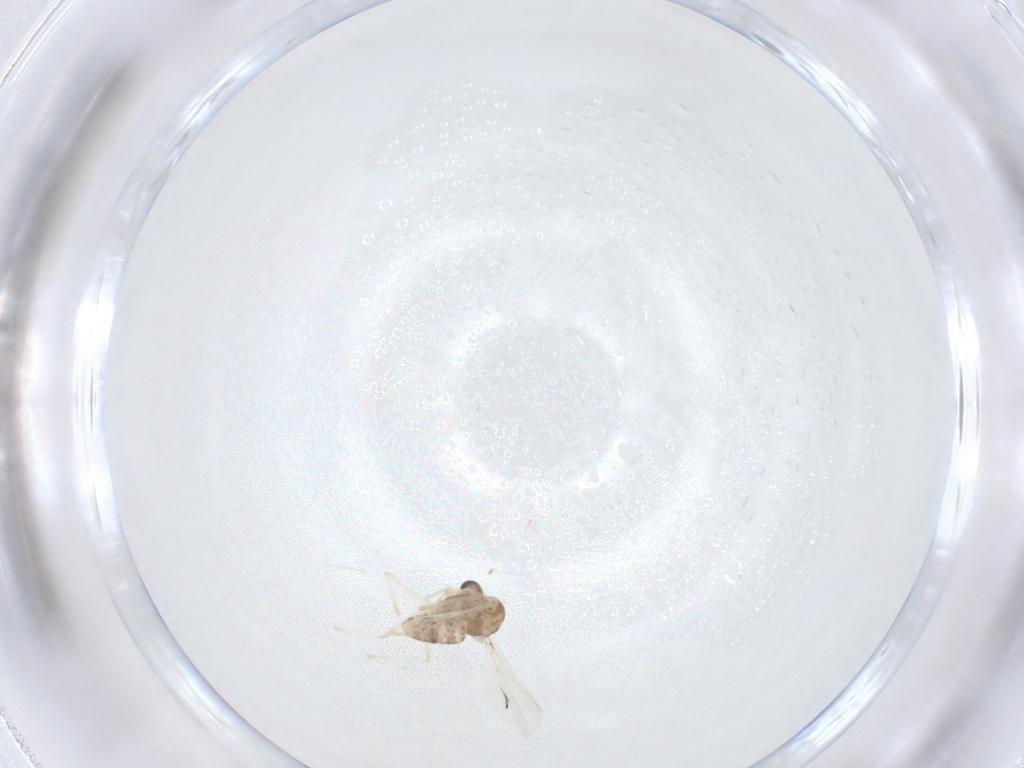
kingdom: Animalia
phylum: Arthropoda
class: Insecta
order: Diptera
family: Chironomidae
